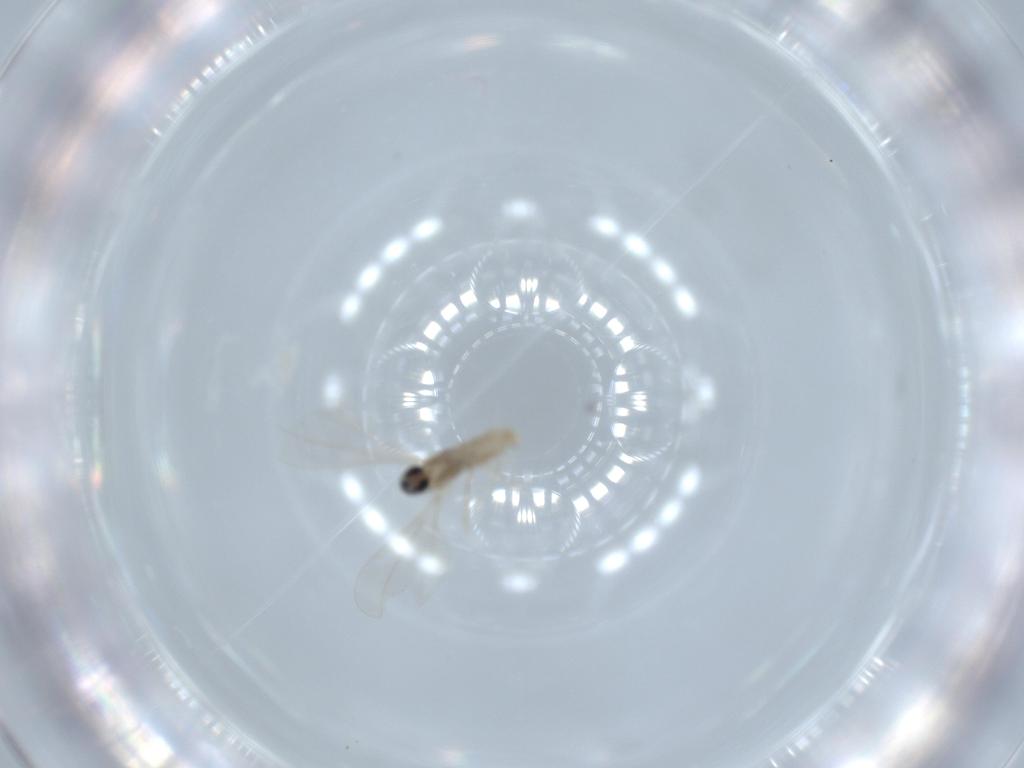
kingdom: Animalia
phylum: Arthropoda
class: Insecta
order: Diptera
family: Cecidomyiidae
